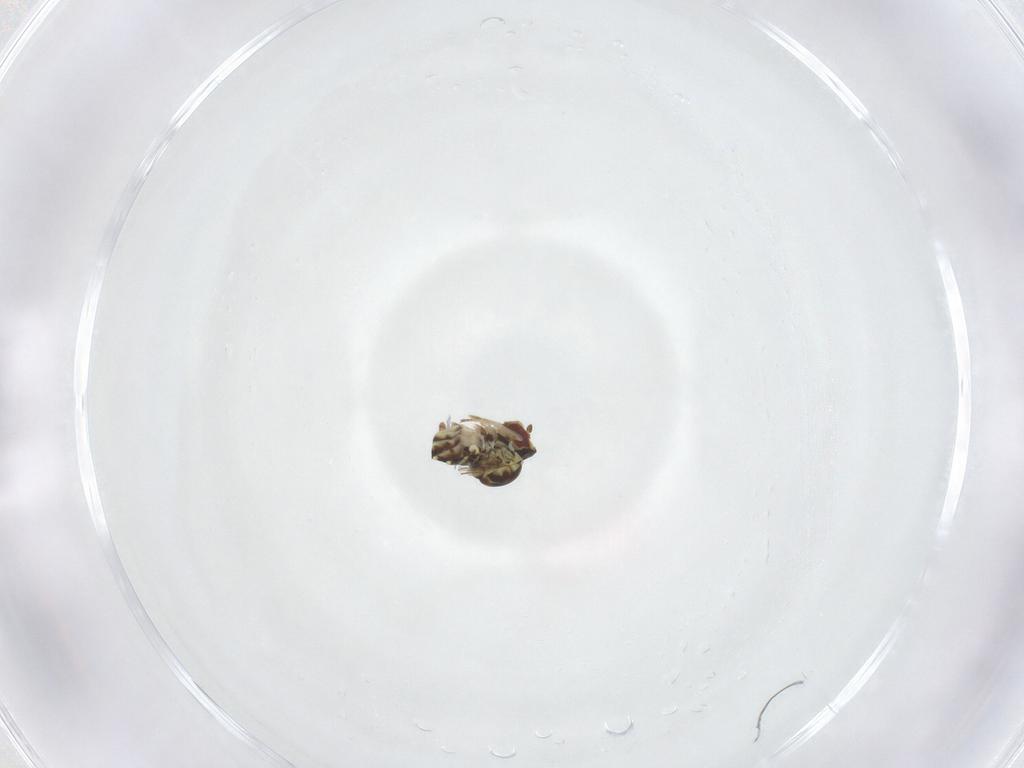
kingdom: Animalia
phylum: Arthropoda
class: Insecta
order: Diptera
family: Bombyliidae
